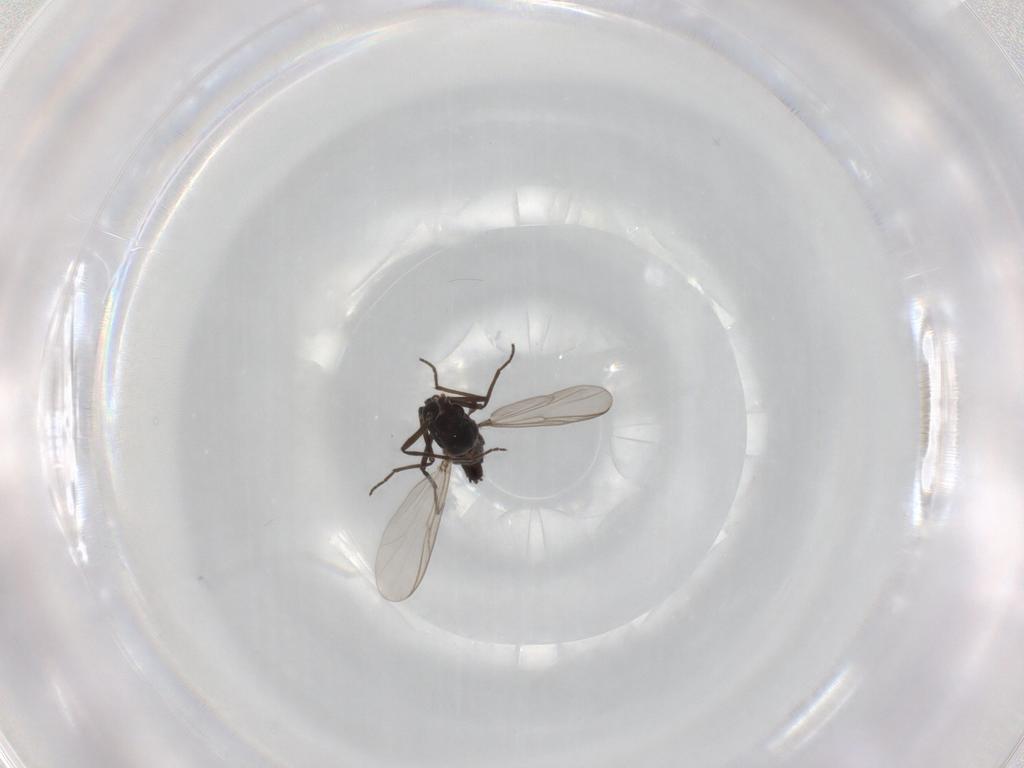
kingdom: Animalia
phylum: Arthropoda
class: Insecta
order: Diptera
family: Chironomidae
